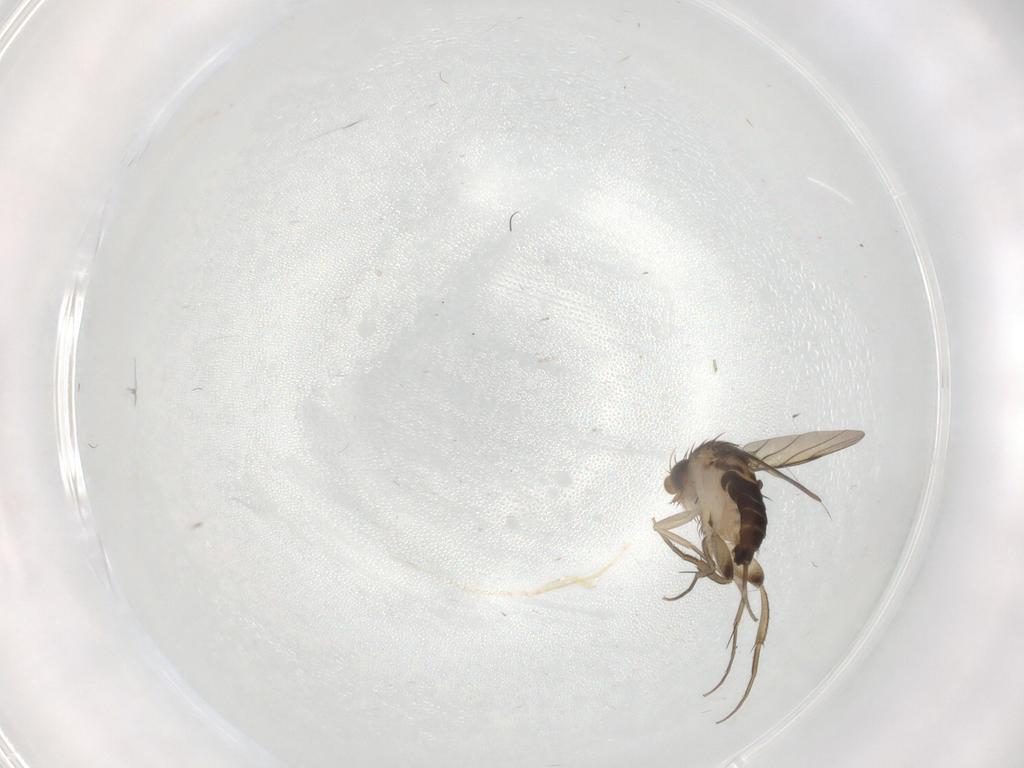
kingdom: Animalia
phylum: Arthropoda
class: Insecta
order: Diptera
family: Phoridae
